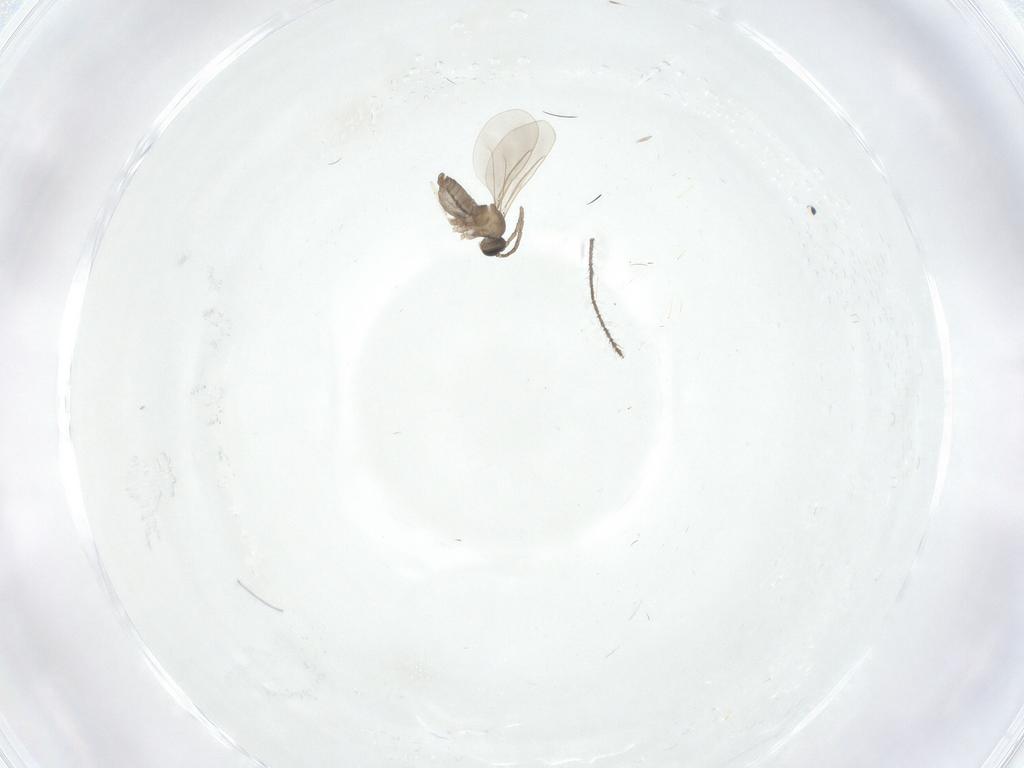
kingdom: Animalia
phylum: Arthropoda
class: Insecta
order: Diptera
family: Cecidomyiidae
